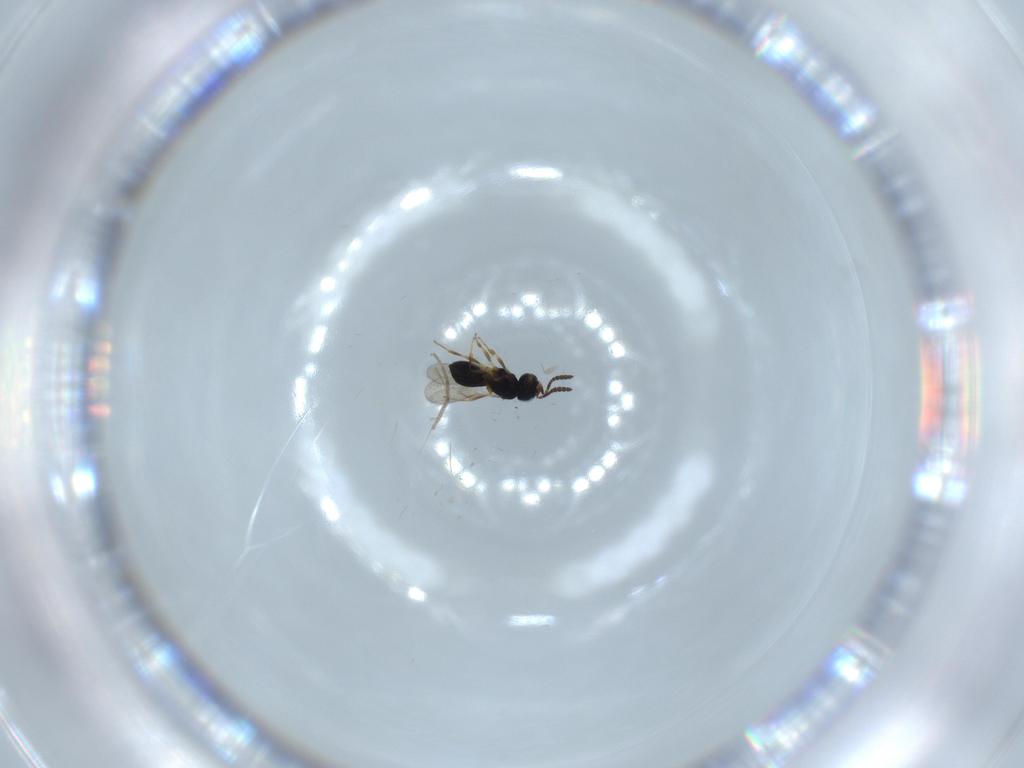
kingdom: Animalia
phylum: Arthropoda
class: Insecta
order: Hymenoptera
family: Scelionidae
